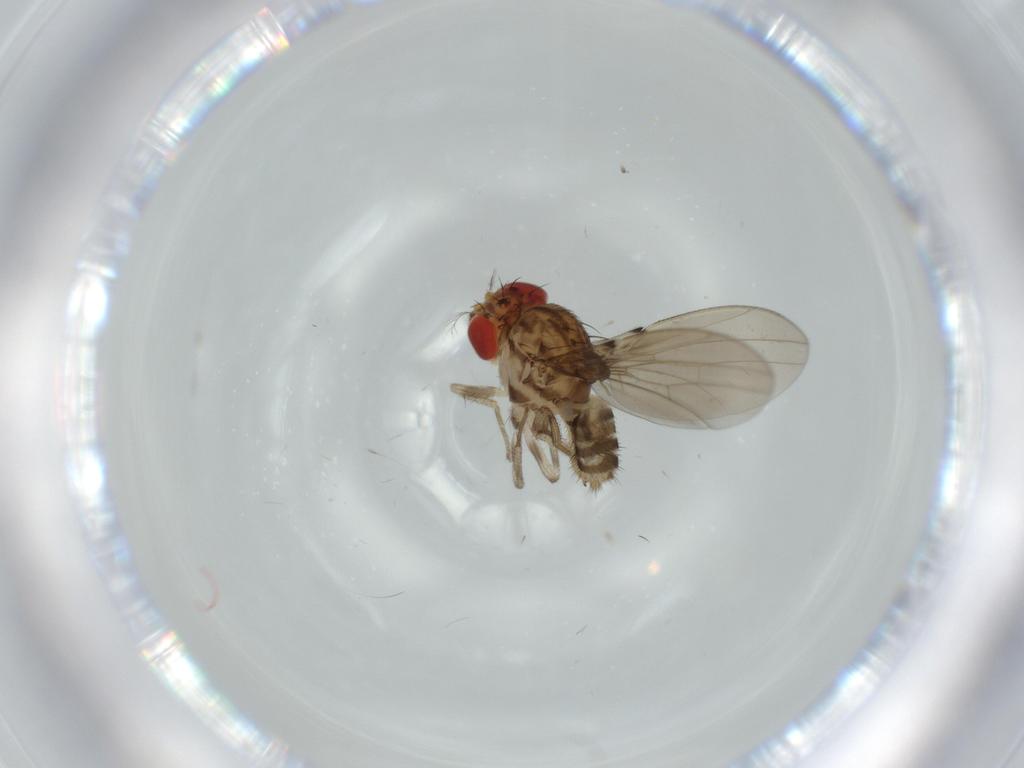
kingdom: Animalia
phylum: Arthropoda
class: Insecta
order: Diptera
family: Drosophilidae
